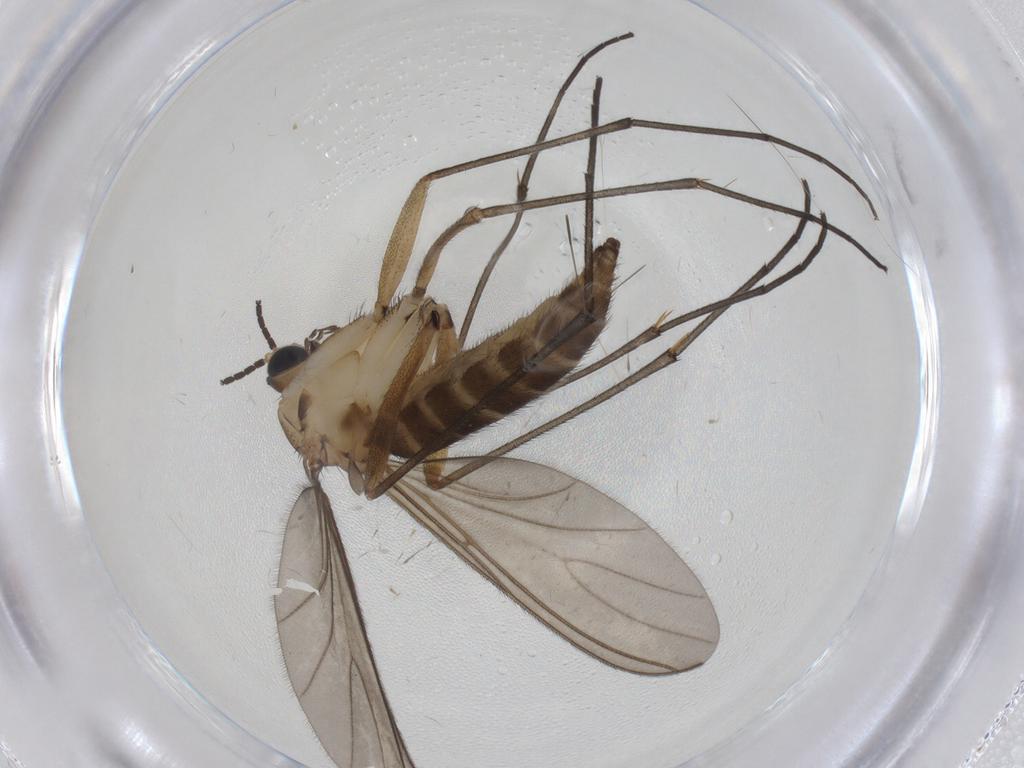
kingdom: Animalia
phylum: Arthropoda
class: Insecta
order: Diptera
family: Sciaridae
